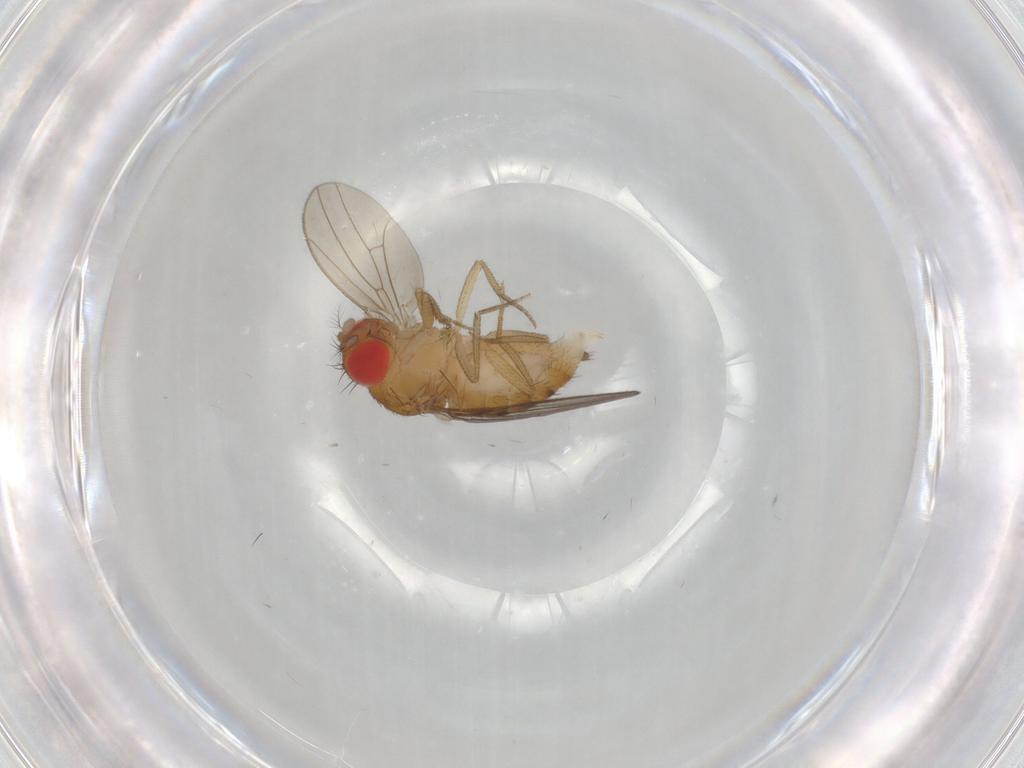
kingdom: Animalia
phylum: Arthropoda
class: Insecta
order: Diptera
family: Drosophilidae
